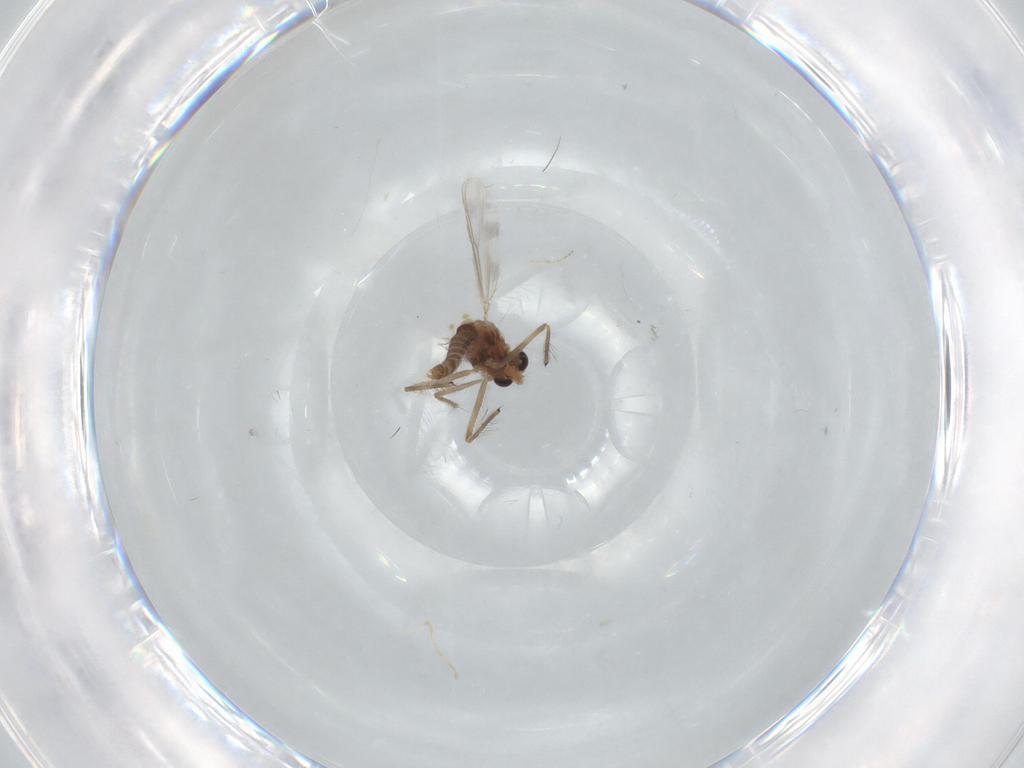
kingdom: Animalia
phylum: Arthropoda
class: Insecta
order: Diptera
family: Chironomidae
